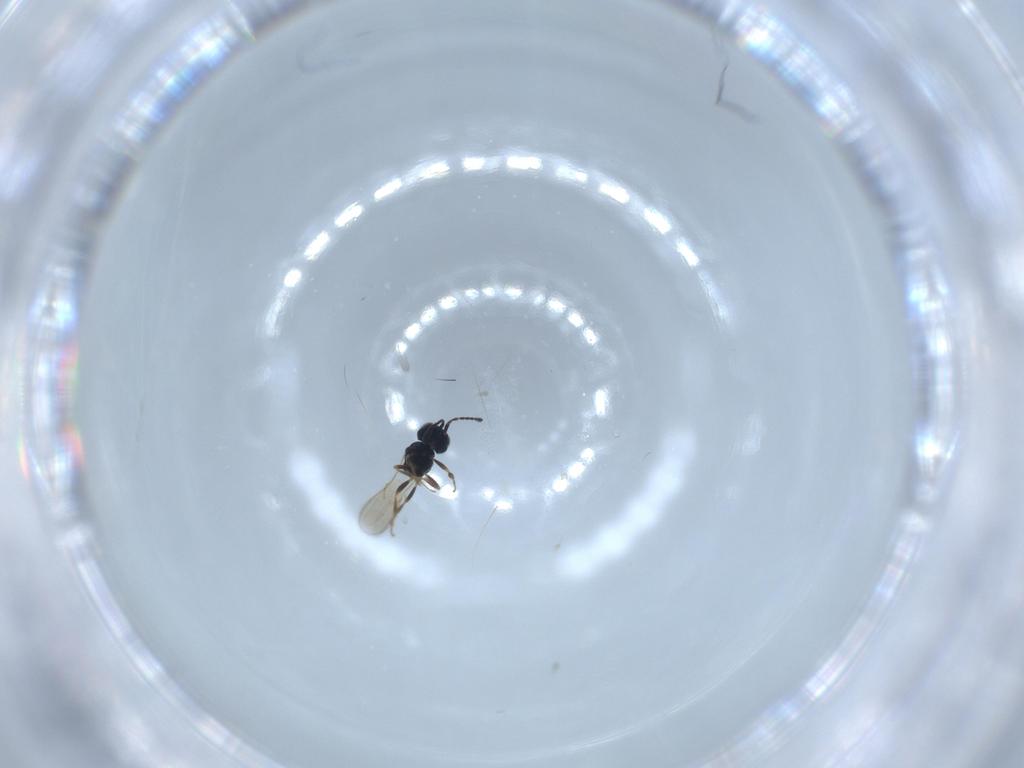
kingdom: Animalia
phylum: Arthropoda
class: Insecta
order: Hymenoptera
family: Scelionidae
